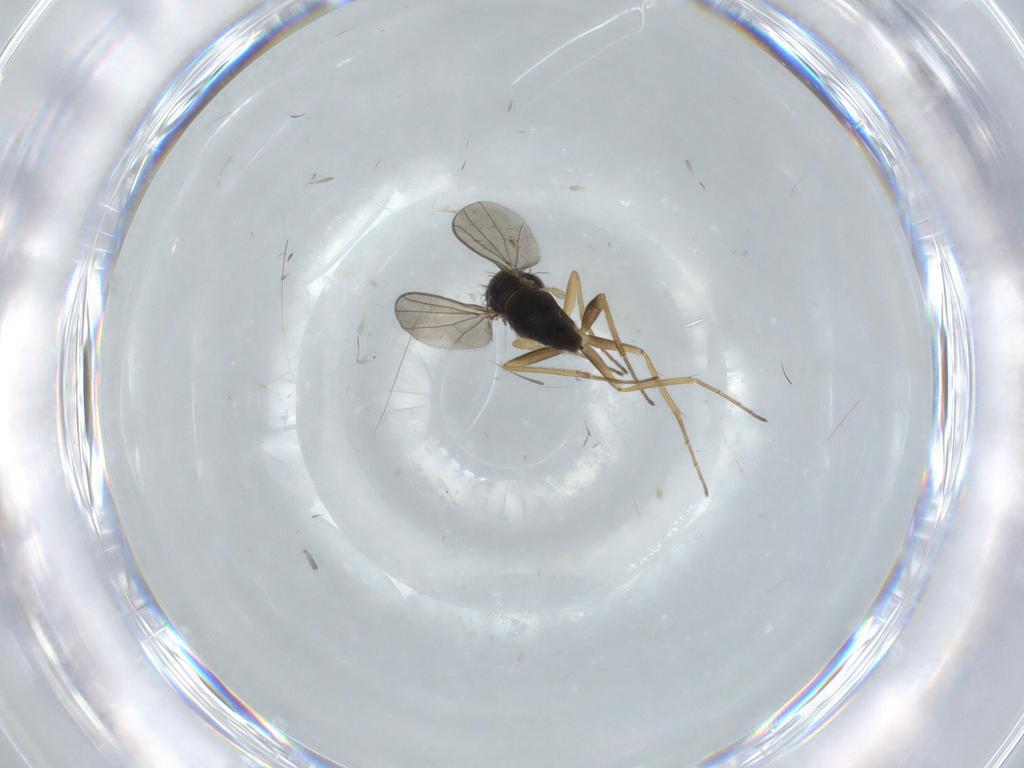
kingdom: Animalia
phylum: Arthropoda
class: Insecta
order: Diptera
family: Dolichopodidae
